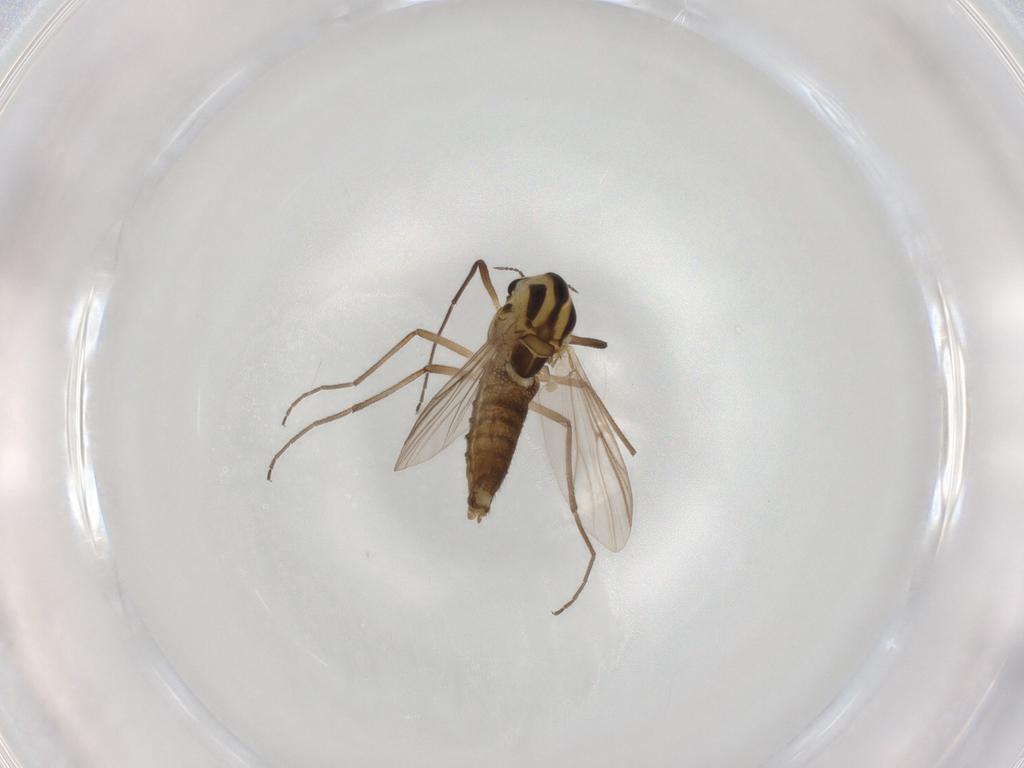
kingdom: Animalia
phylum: Arthropoda
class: Insecta
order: Diptera
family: Chironomidae
